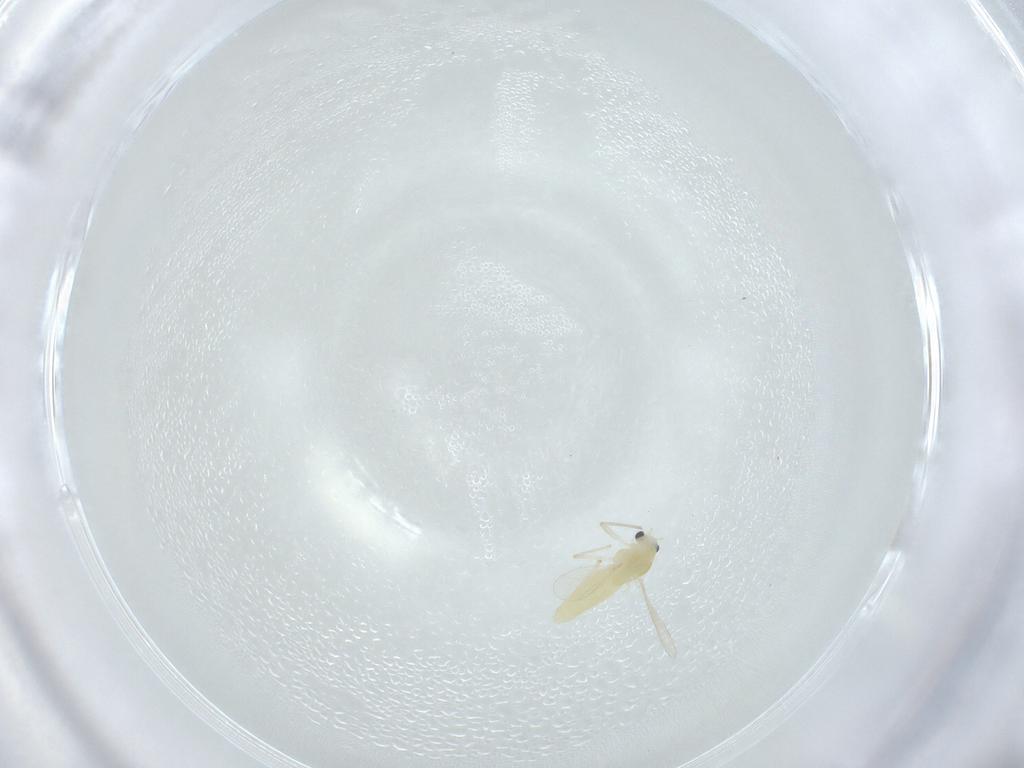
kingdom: Animalia
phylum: Arthropoda
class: Insecta
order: Diptera
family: Chironomidae
